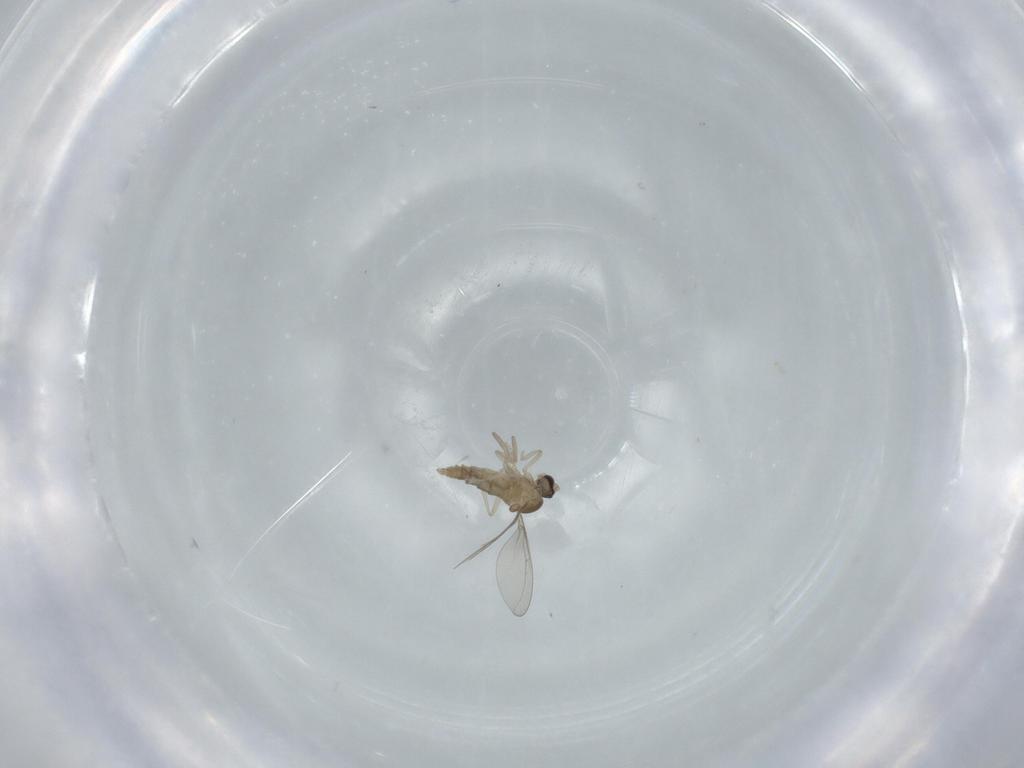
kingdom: Animalia
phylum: Arthropoda
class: Insecta
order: Diptera
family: Cecidomyiidae
